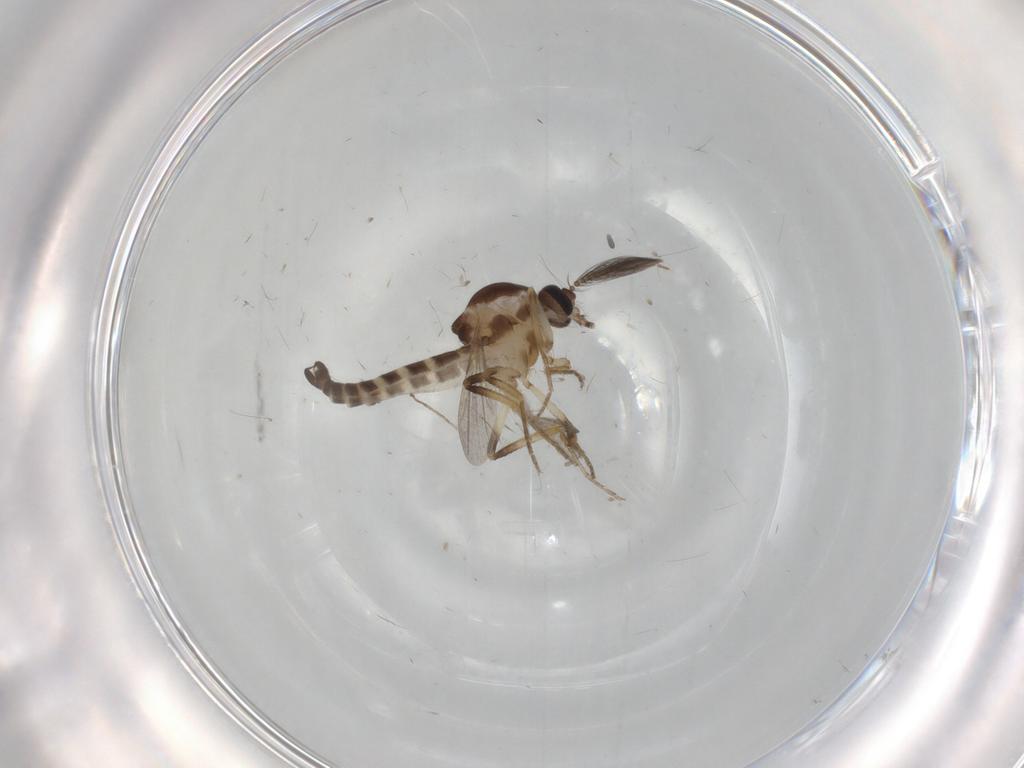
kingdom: Animalia
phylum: Arthropoda
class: Insecta
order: Diptera
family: Ceratopogonidae
